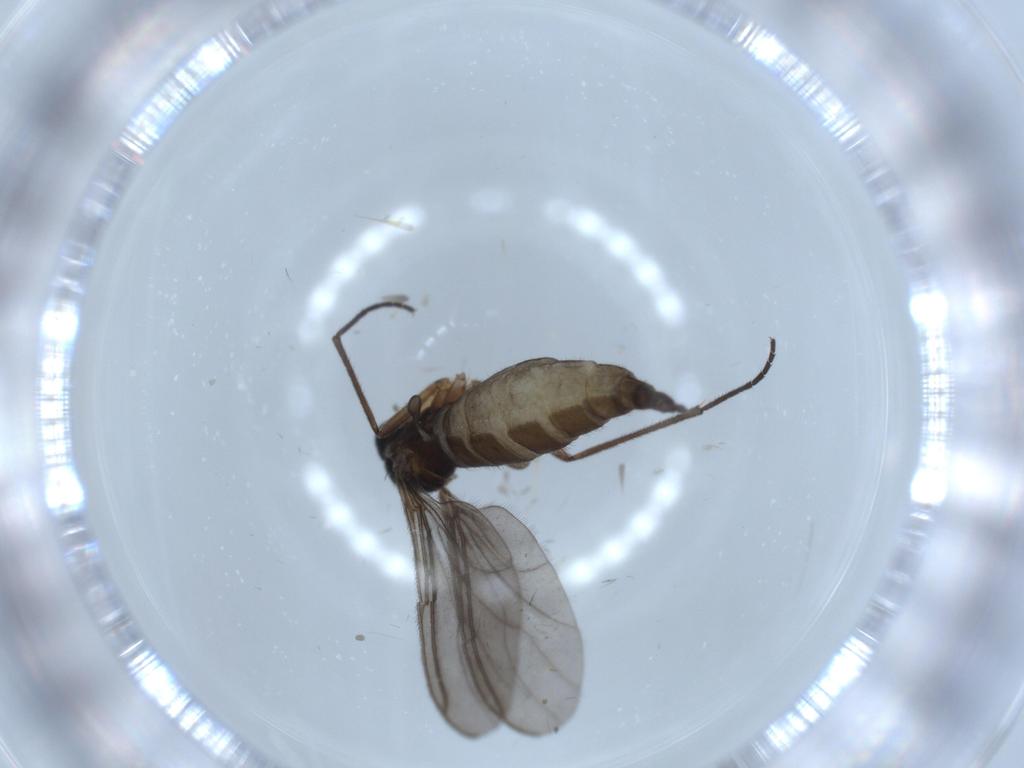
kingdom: Animalia
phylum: Arthropoda
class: Insecta
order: Diptera
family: Sciaridae
